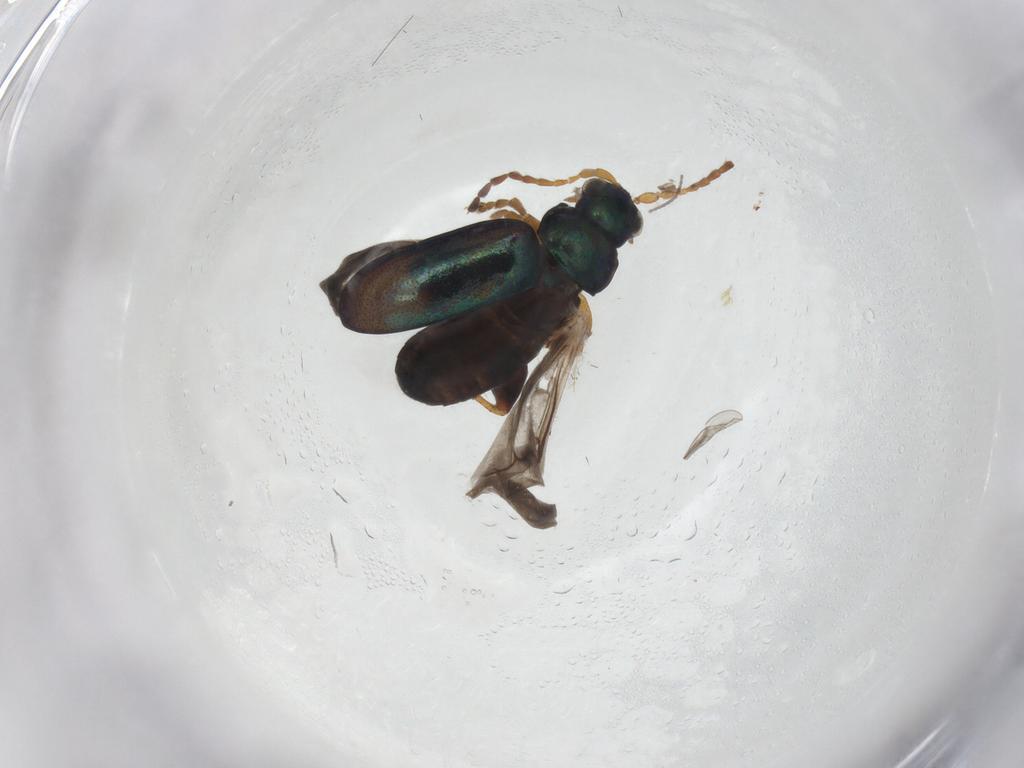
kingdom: Animalia
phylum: Arthropoda
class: Insecta
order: Coleoptera
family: Chrysomelidae
